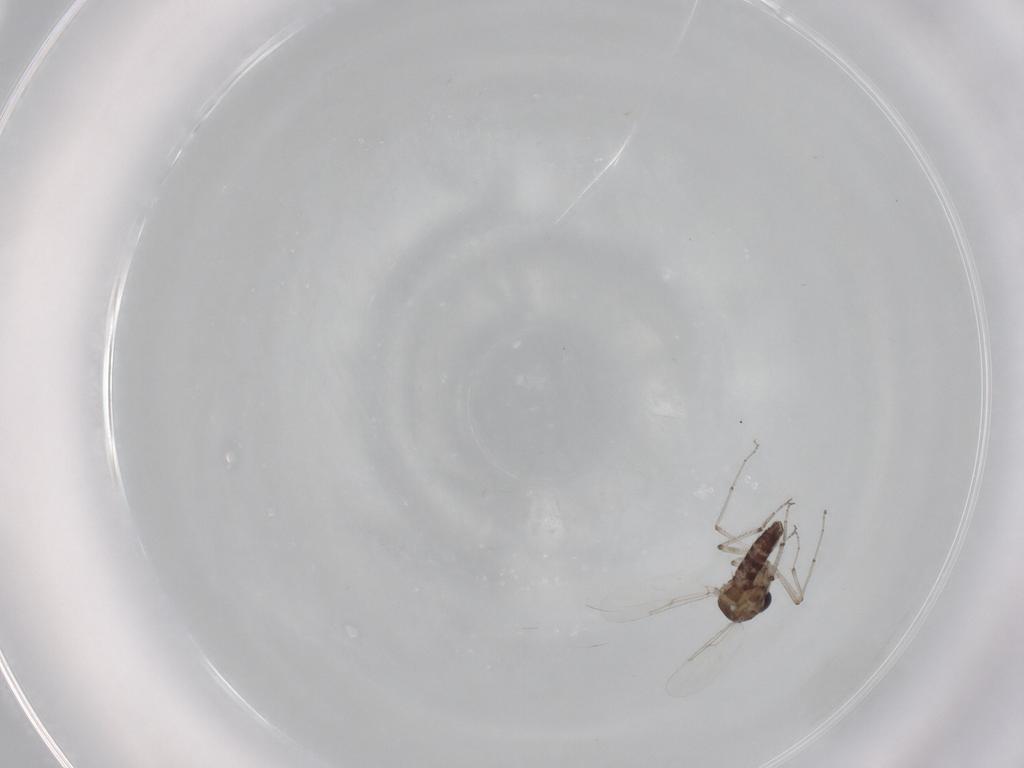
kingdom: Animalia
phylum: Arthropoda
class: Insecta
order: Diptera
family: Ceratopogonidae
